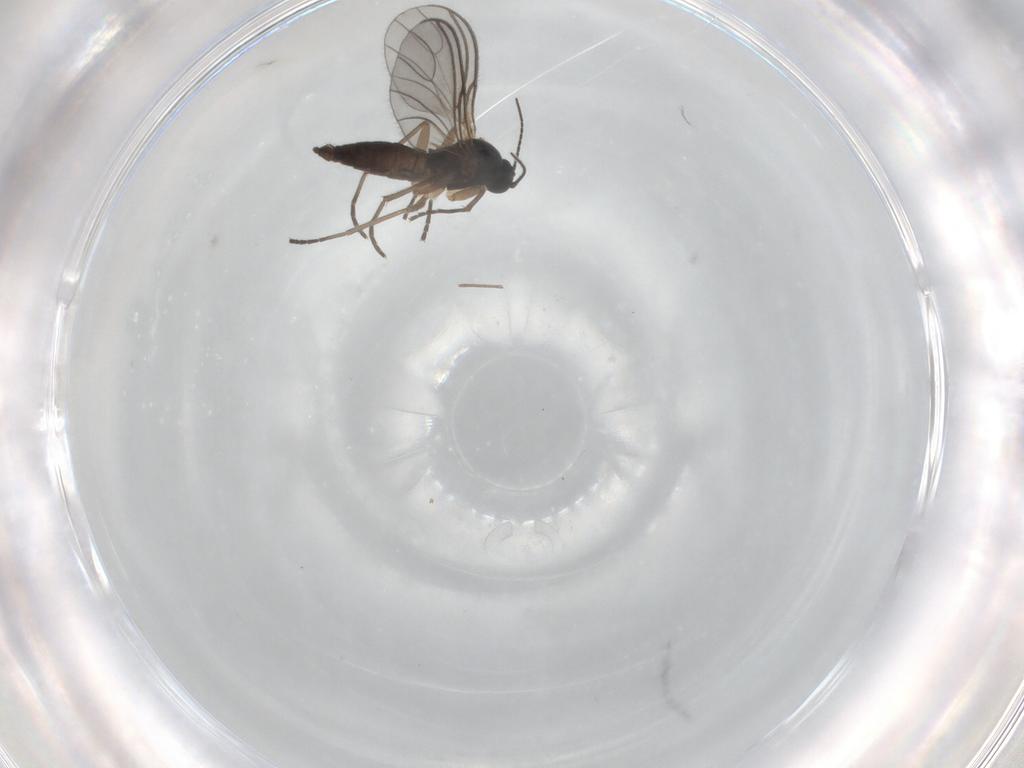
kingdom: Animalia
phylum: Arthropoda
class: Insecta
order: Diptera
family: Sciaridae
